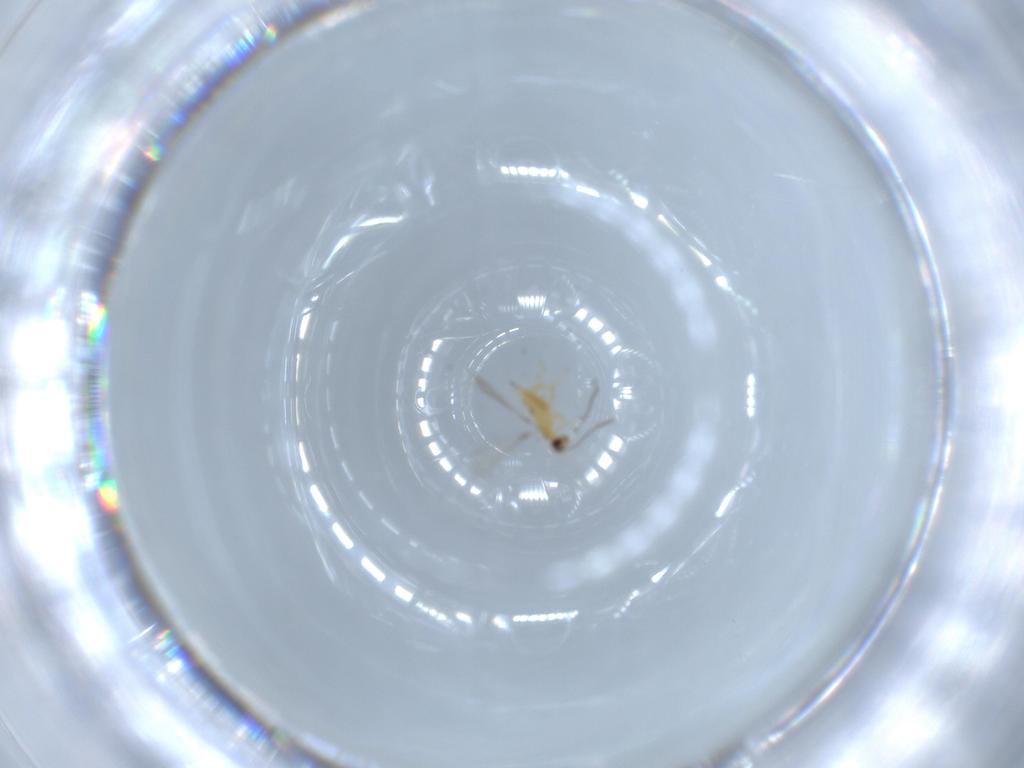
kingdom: Animalia
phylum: Arthropoda
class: Insecta
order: Hymenoptera
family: Mymaridae
